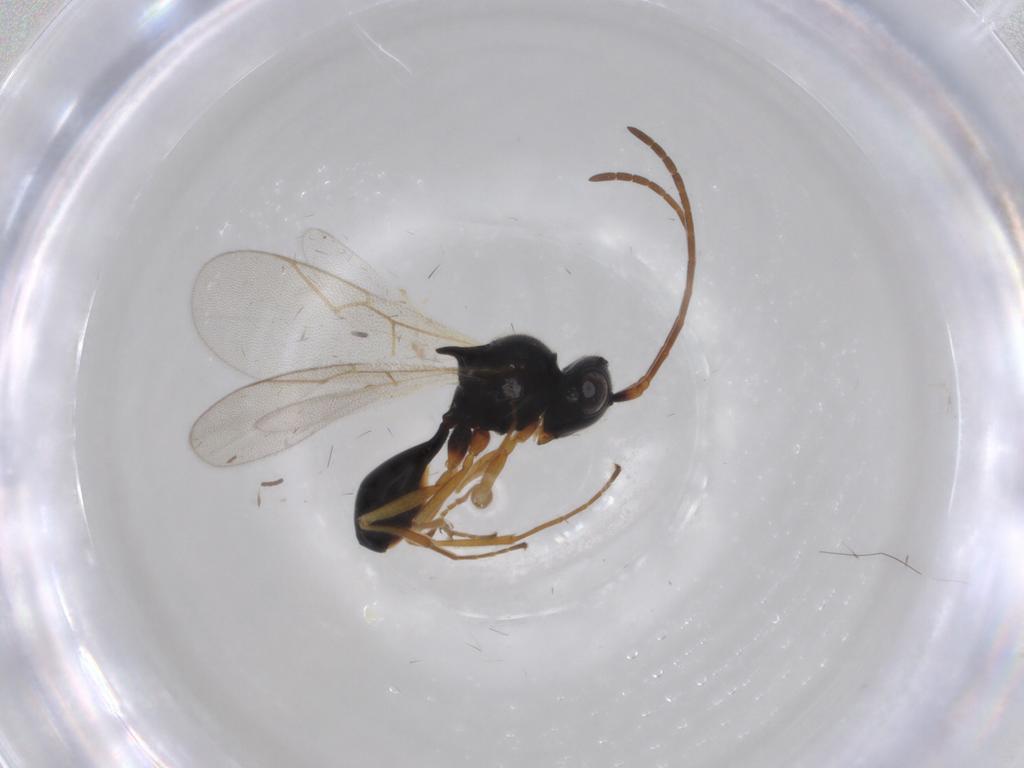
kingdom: Animalia
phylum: Arthropoda
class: Insecta
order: Hymenoptera
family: Figitidae
